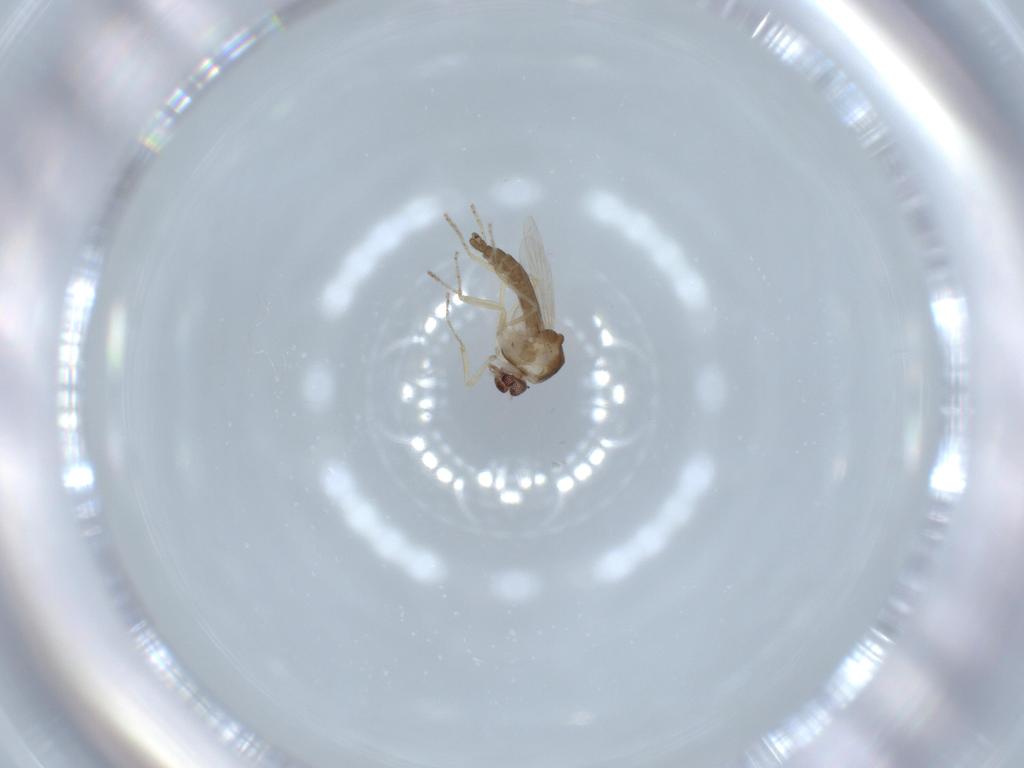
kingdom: Animalia
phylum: Arthropoda
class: Insecta
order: Diptera
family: Ceratopogonidae
